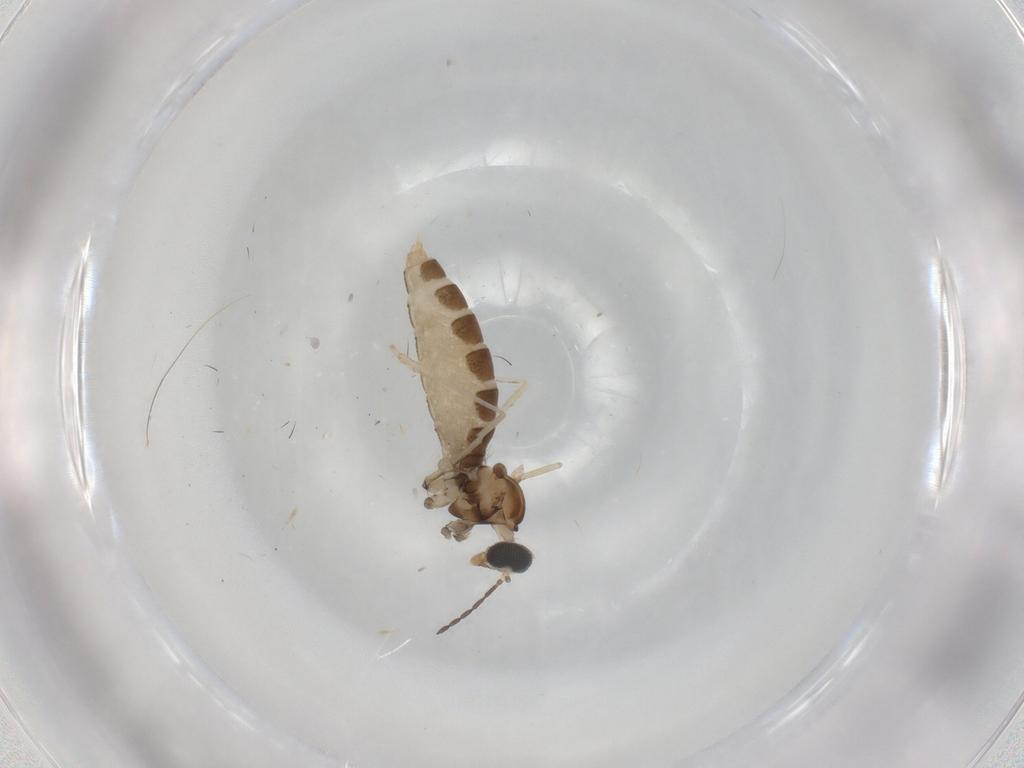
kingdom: Animalia
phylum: Arthropoda
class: Insecta
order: Diptera
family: Cecidomyiidae
